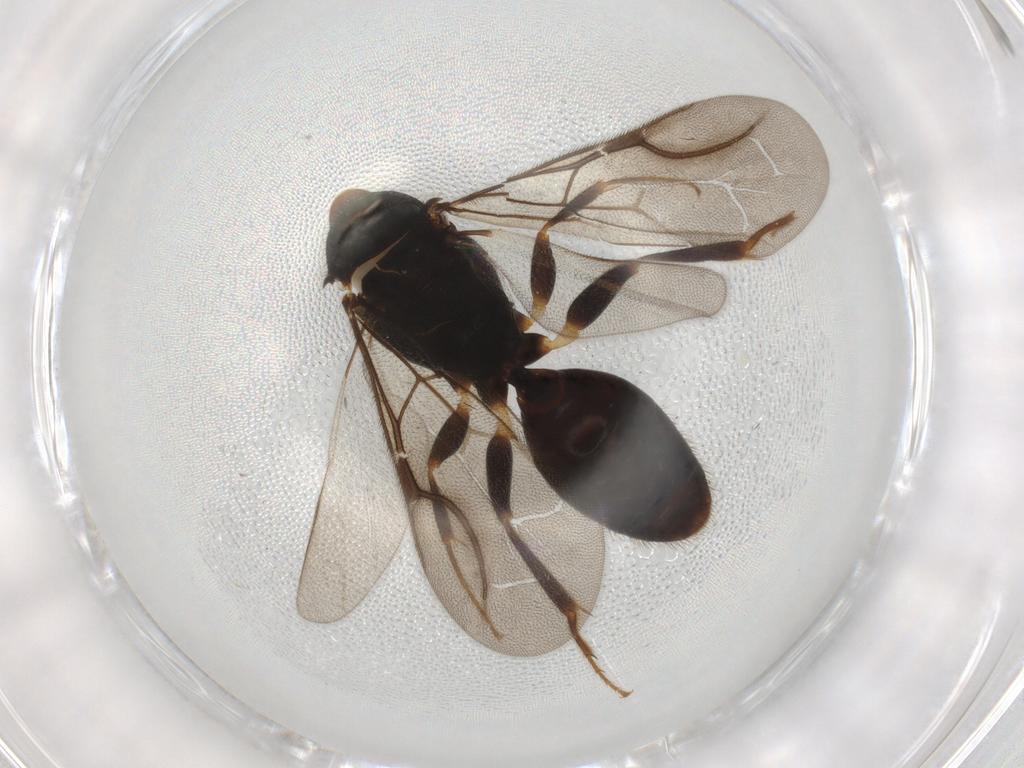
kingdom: Animalia
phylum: Arthropoda
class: Insecta
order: Hymenoptera
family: Bethylidae
